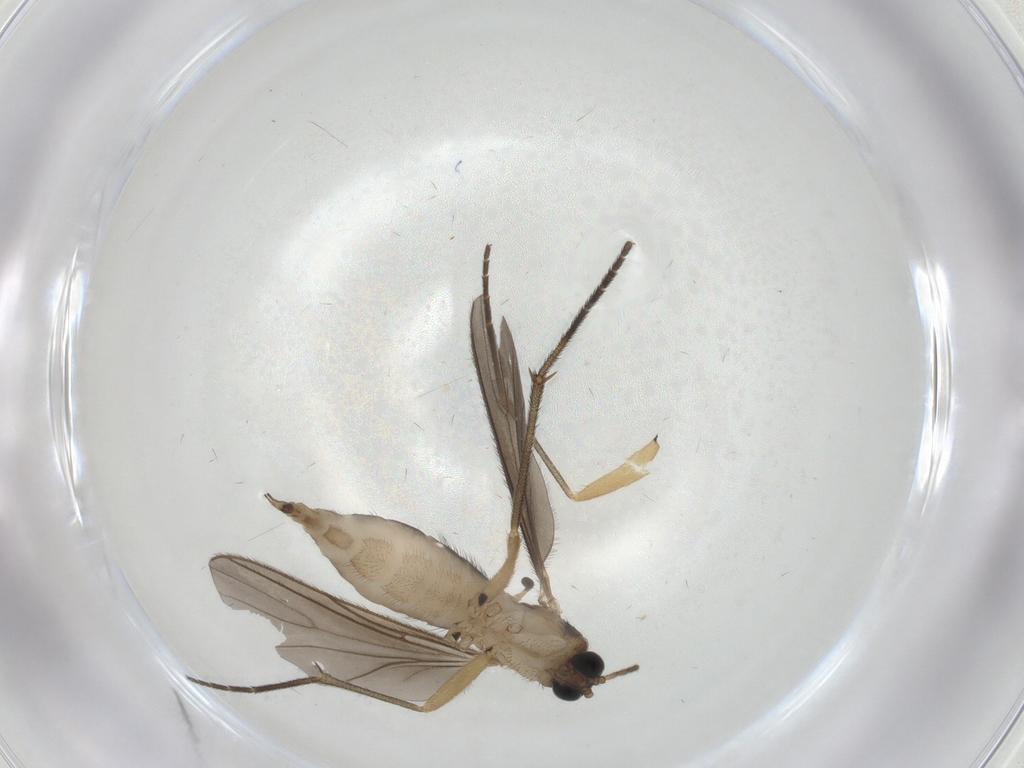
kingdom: Animalia
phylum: Arthropoda
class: Insecta
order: Diptera
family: Sciaridae
